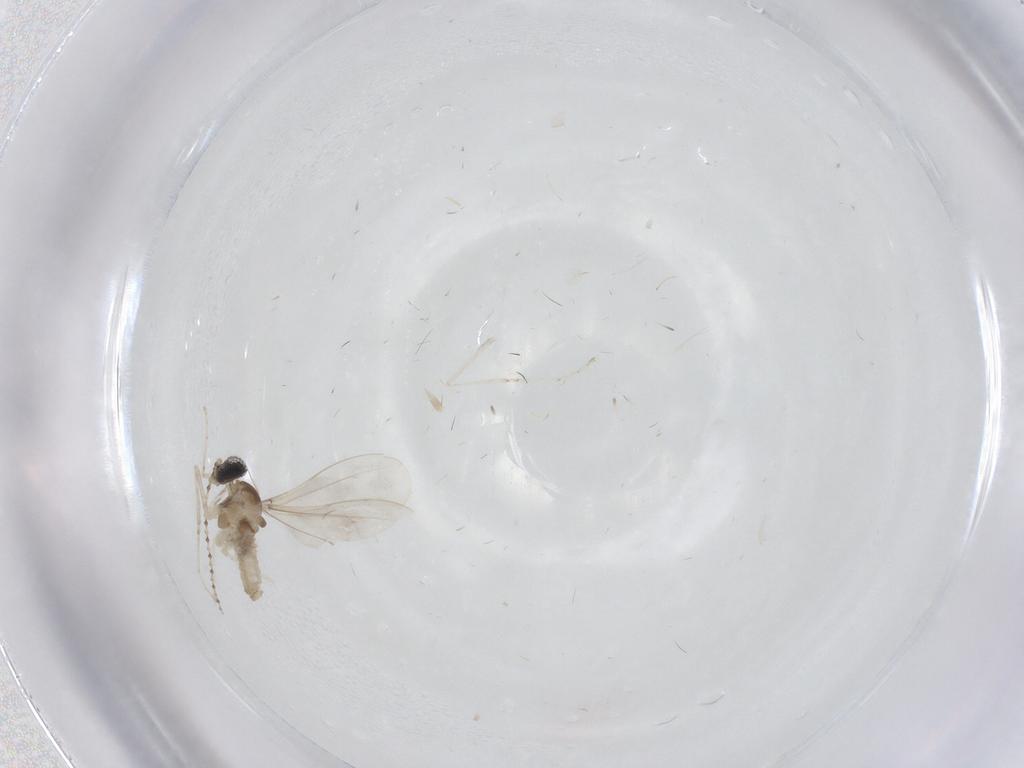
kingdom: Animalia
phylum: Arthropoda
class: Insecta
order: Diptera
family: Cecidomyiidae
